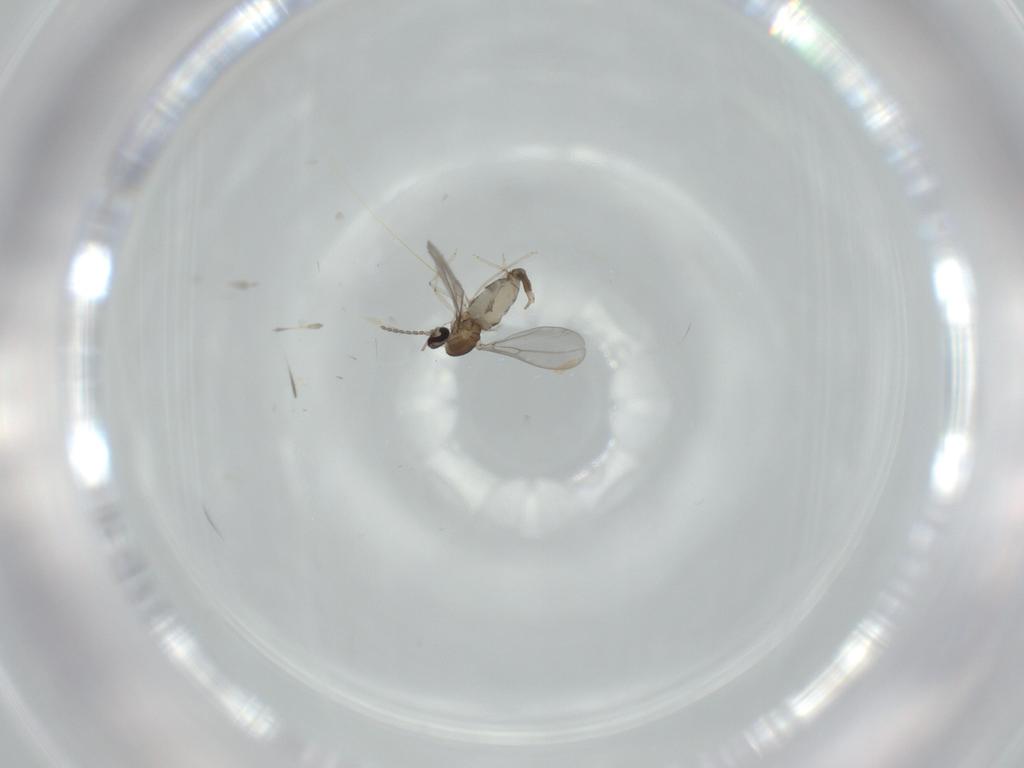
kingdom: Animalia
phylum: Arthropoda
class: Insecta
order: Diptera
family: Cecidomyiidae
